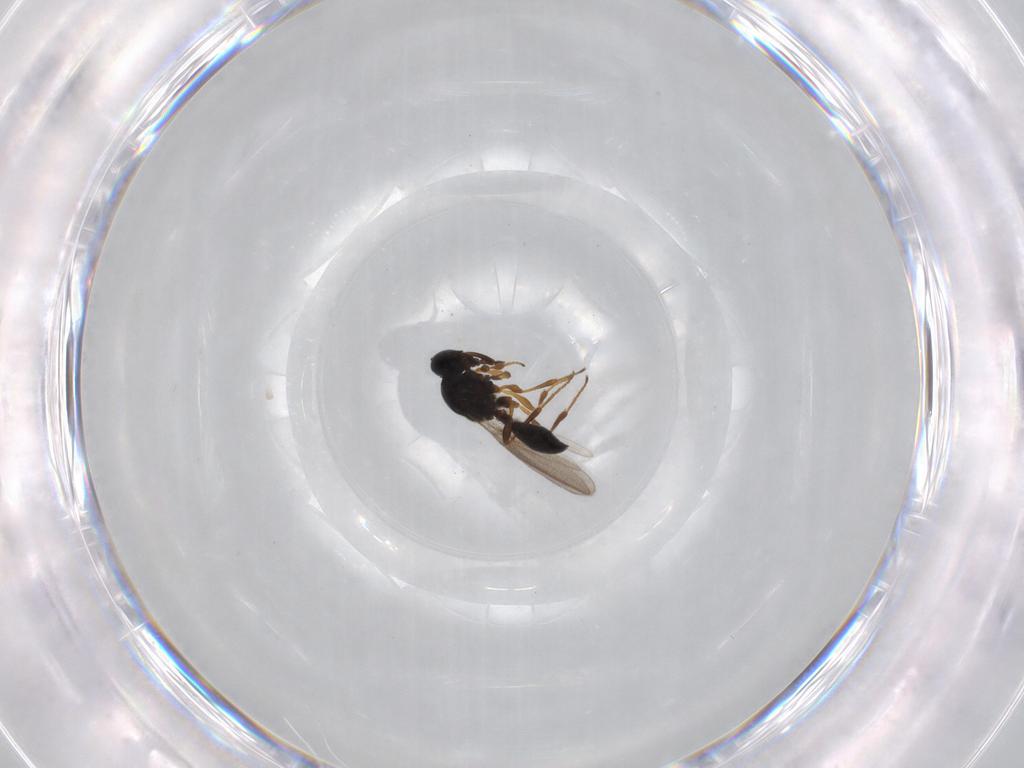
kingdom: Animalia
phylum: Arthropoda
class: Insecta
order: Hymenoptera
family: Platygastridae
